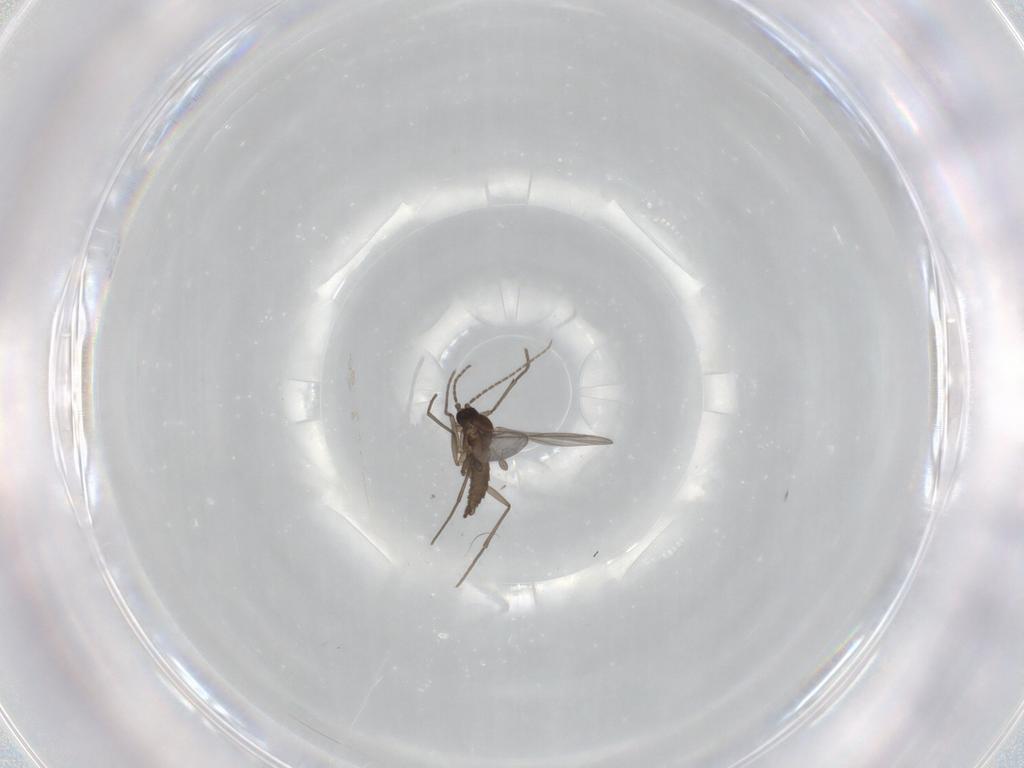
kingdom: Animalia
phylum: Arthropoda
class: Insecta
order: Diptera
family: Sciaridae
